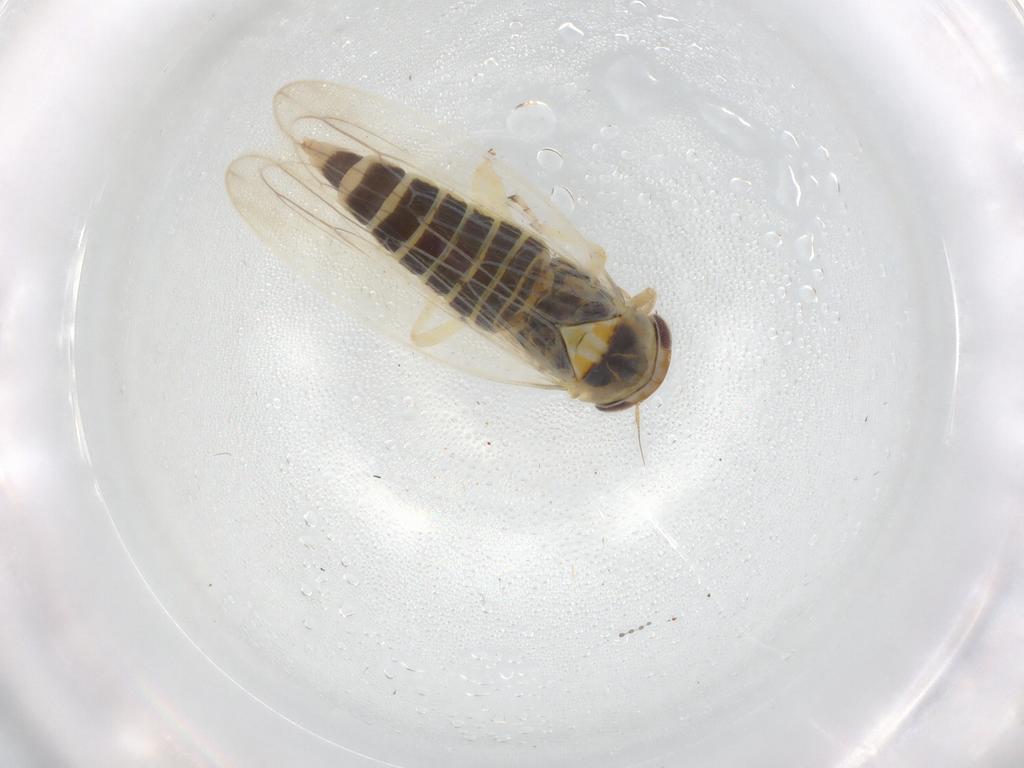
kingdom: Animalia
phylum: Arthropoda
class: Insecta
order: Hemiptera
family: Cicadellidae
